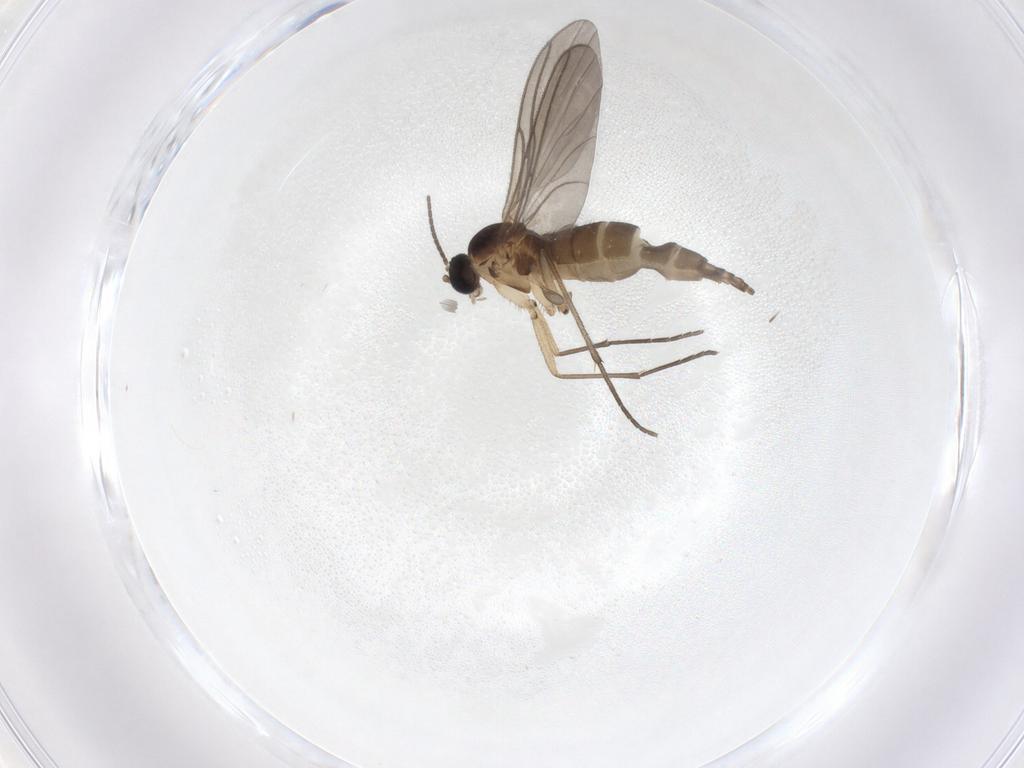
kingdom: Animalia
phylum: Arthropoda
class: Insecta
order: Diptera
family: Sciaridae
